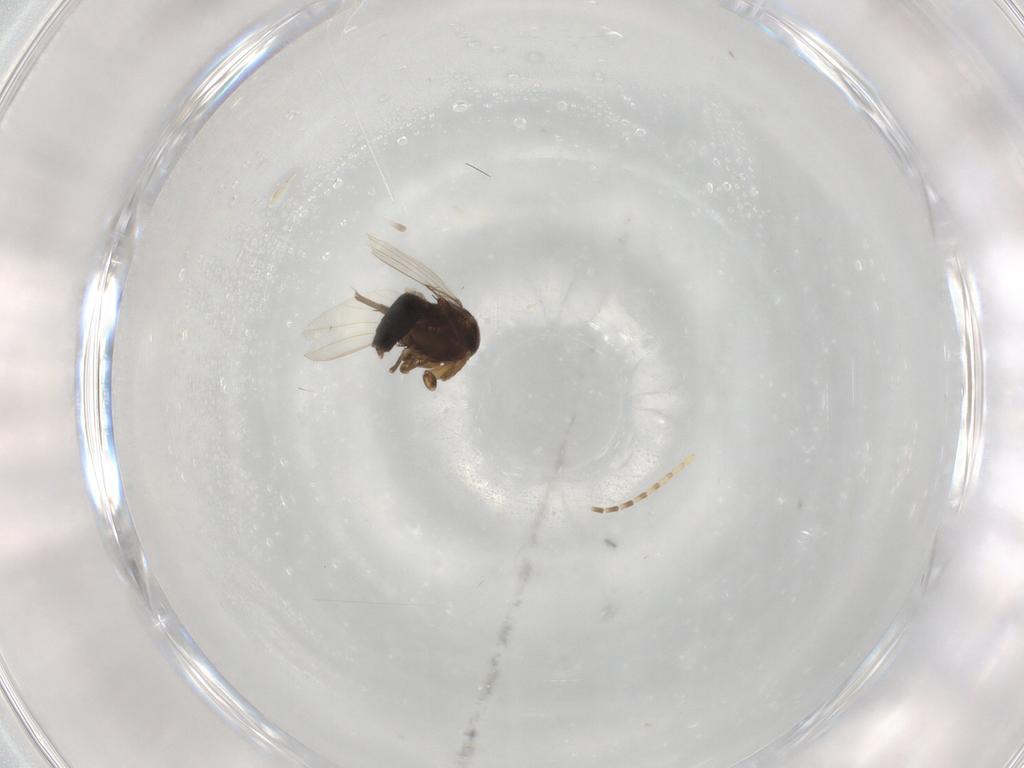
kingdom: Animalia
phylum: Arthropoda
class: Insecta
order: Diptera
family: Phoridae
